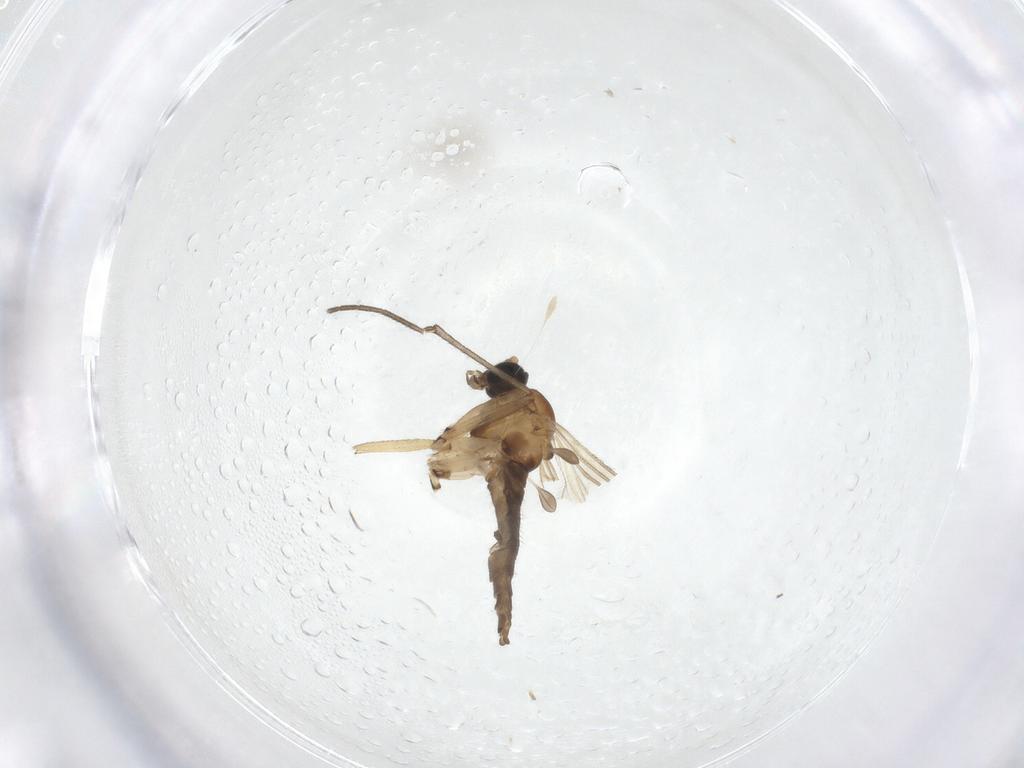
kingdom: Animalia
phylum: Arthropoda
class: Insecta
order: Diptera
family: Sciaridae
